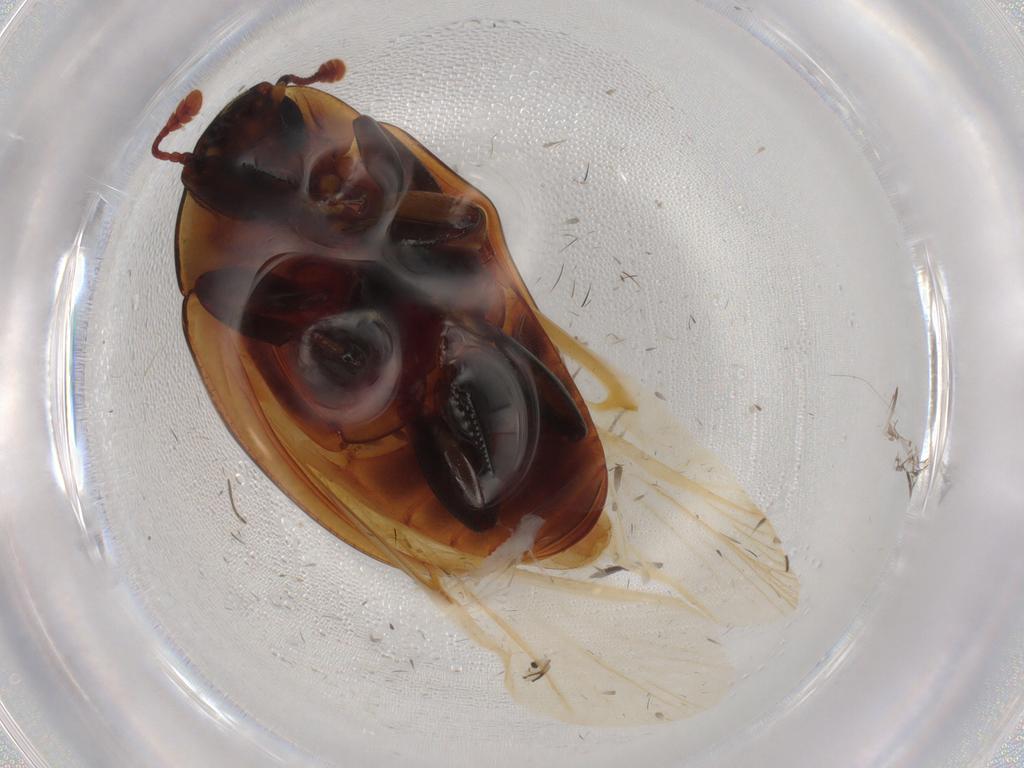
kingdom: Animalia
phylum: Arthropoda
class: Insecta
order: Coleoptera
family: Zopheridae
